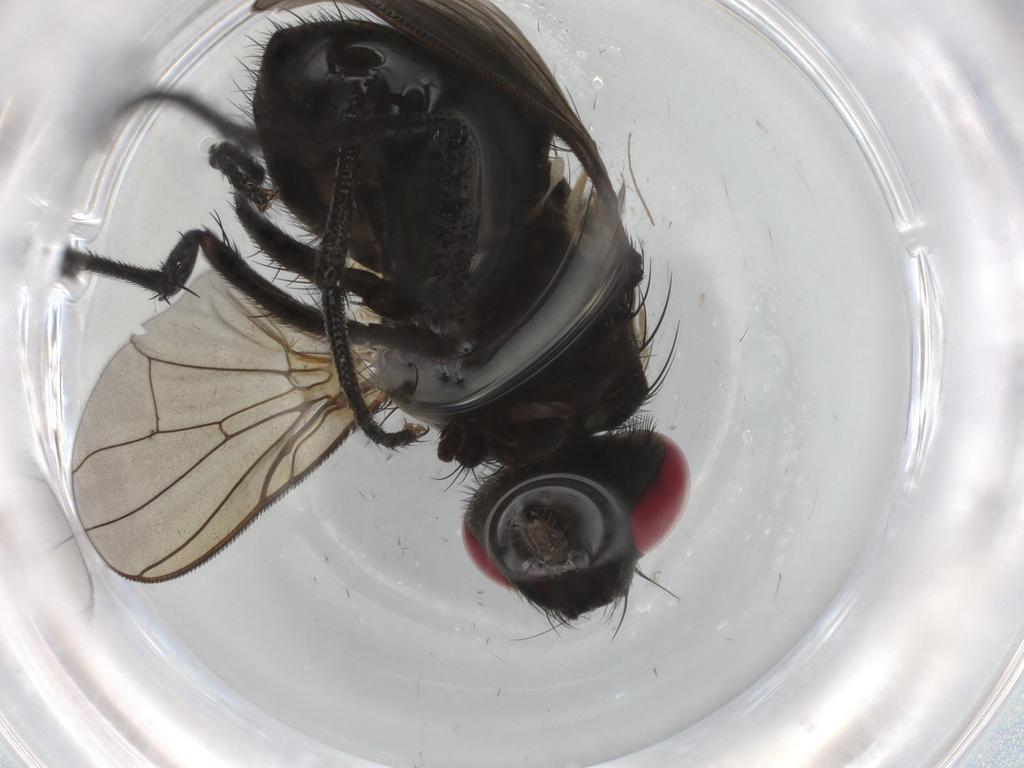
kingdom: Animalia
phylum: Arthropoda
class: Insecta
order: Diptera
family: Muscidae
